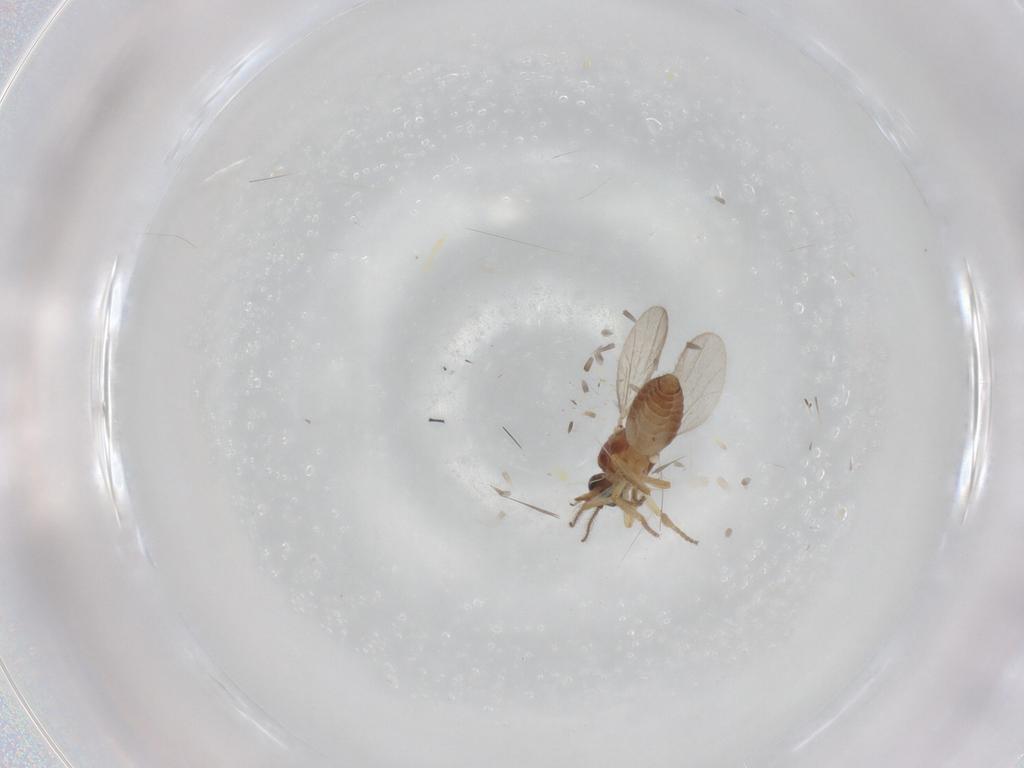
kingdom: Animalia
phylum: Arthropoda
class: Insecta
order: Diptera
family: Ceratopogonidae
